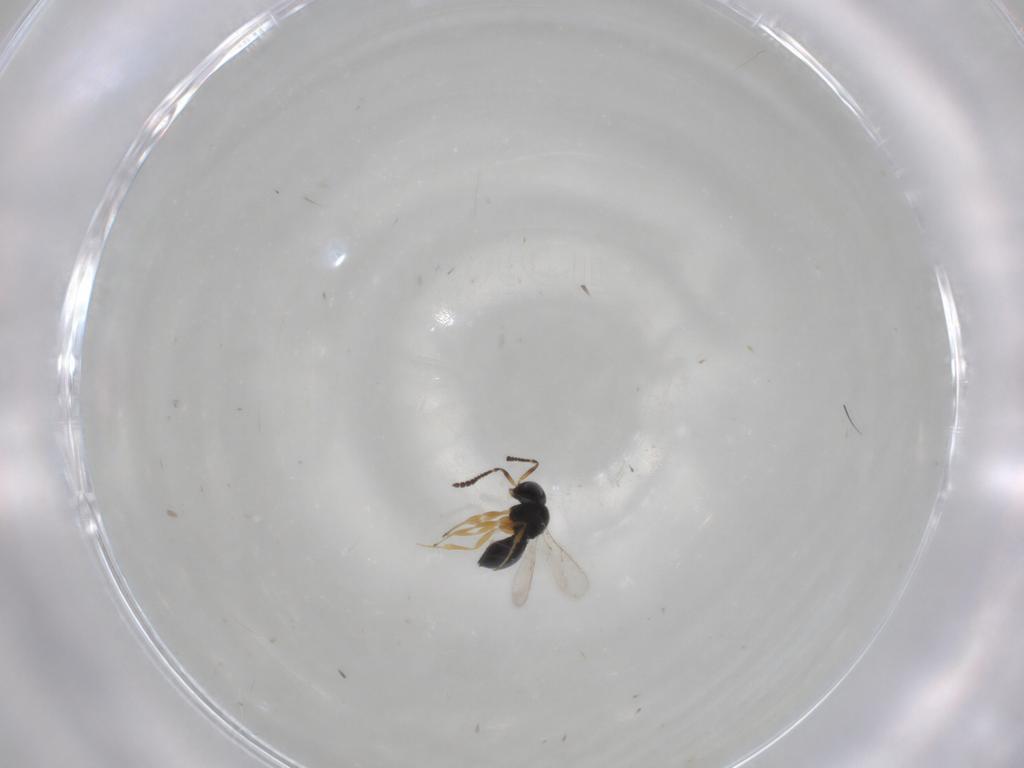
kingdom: Animalia
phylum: Arthropoda
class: Insecta
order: Hymenoptera
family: Scelionidae
